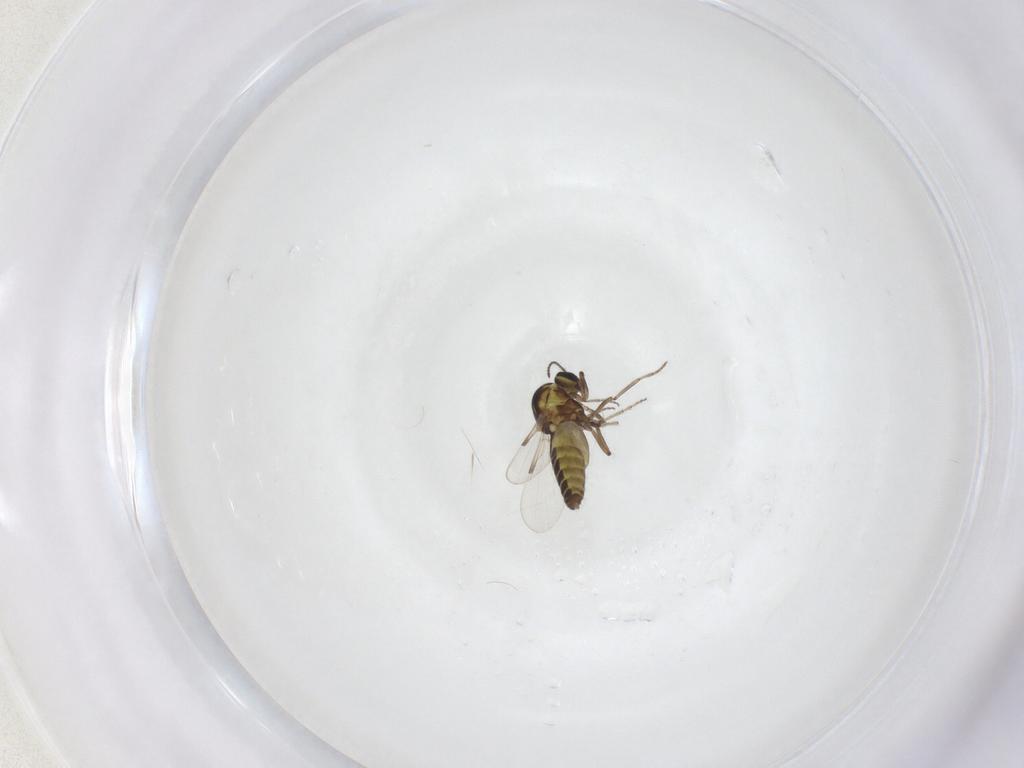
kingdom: Animalia
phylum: Arthropoda
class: Insecta
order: Diptera
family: Ceratopogonidae
